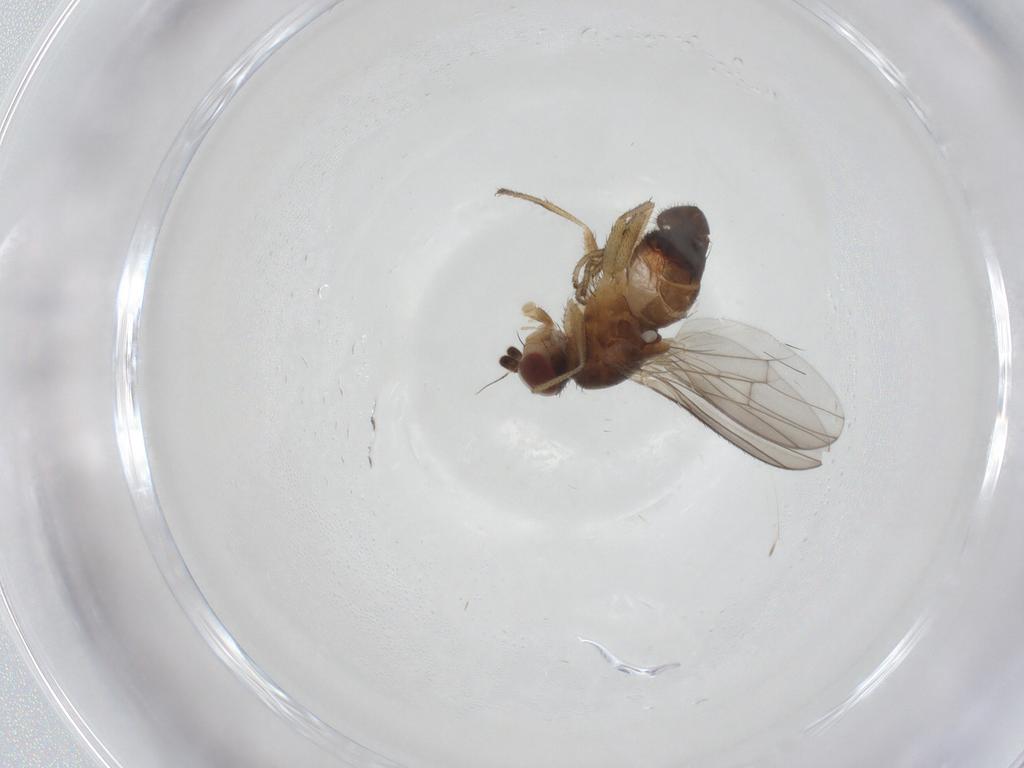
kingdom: Animalia
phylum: Arthropoda
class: Insecta
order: Diptera
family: Heleomyzidae
